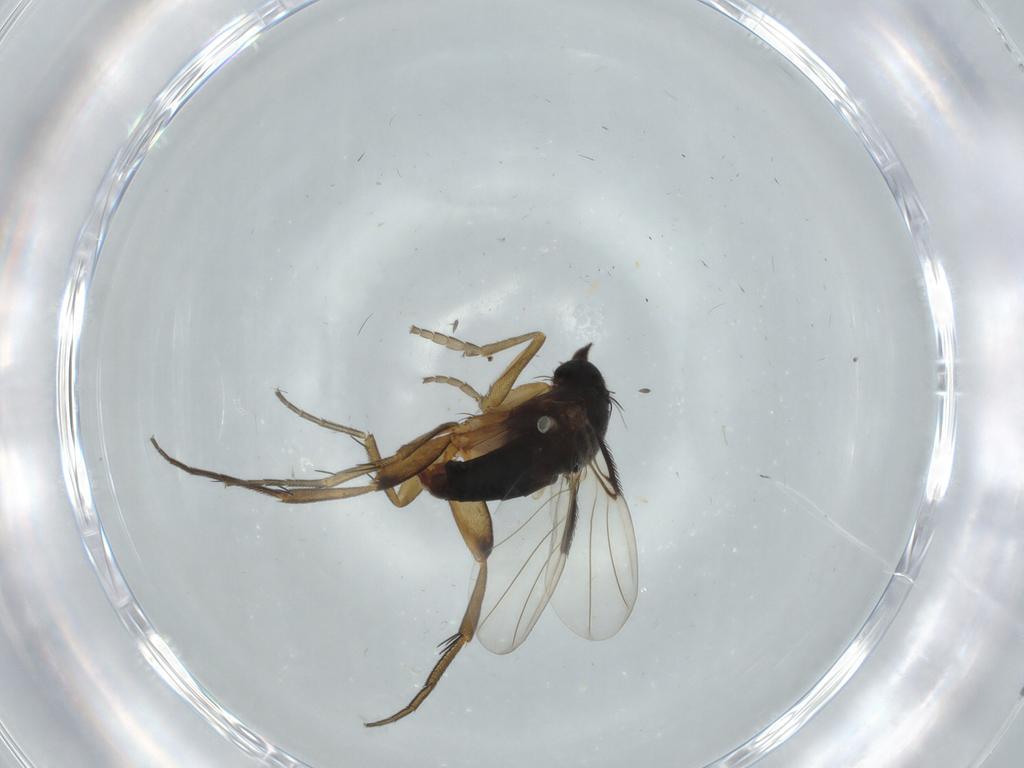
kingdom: Animalia
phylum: Arthropoda
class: Insecta
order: Diptera
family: Phoridae
